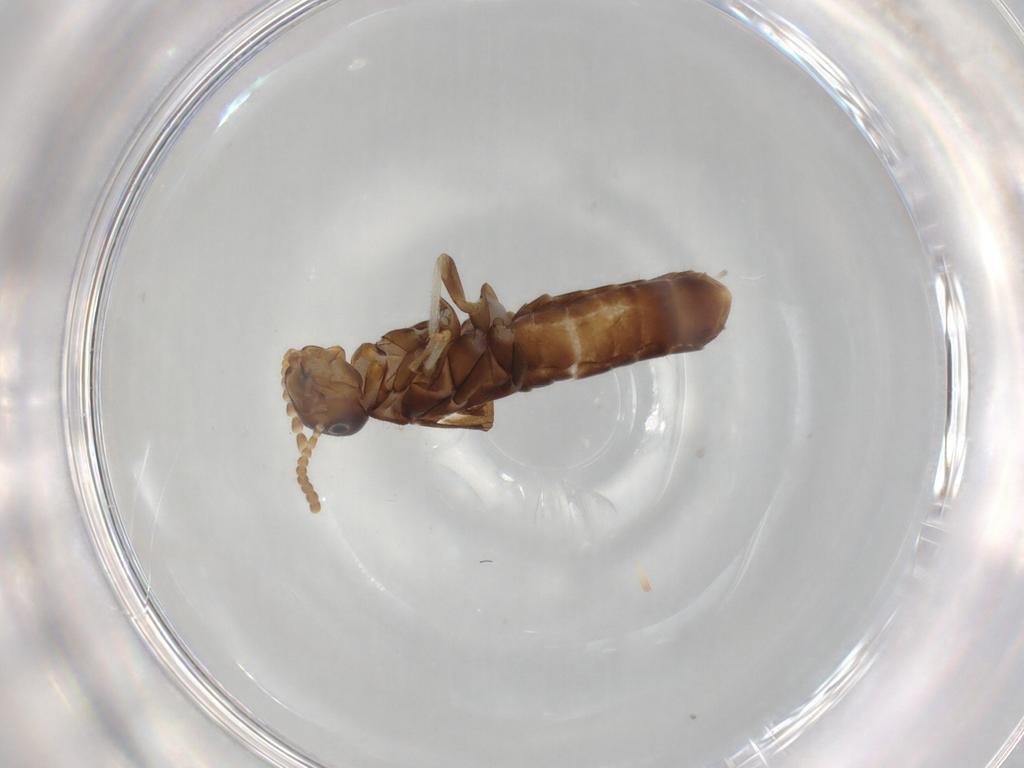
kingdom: Animalia
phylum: Arthropoda
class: Insecta
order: Blattodea
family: Kalotermitidae
